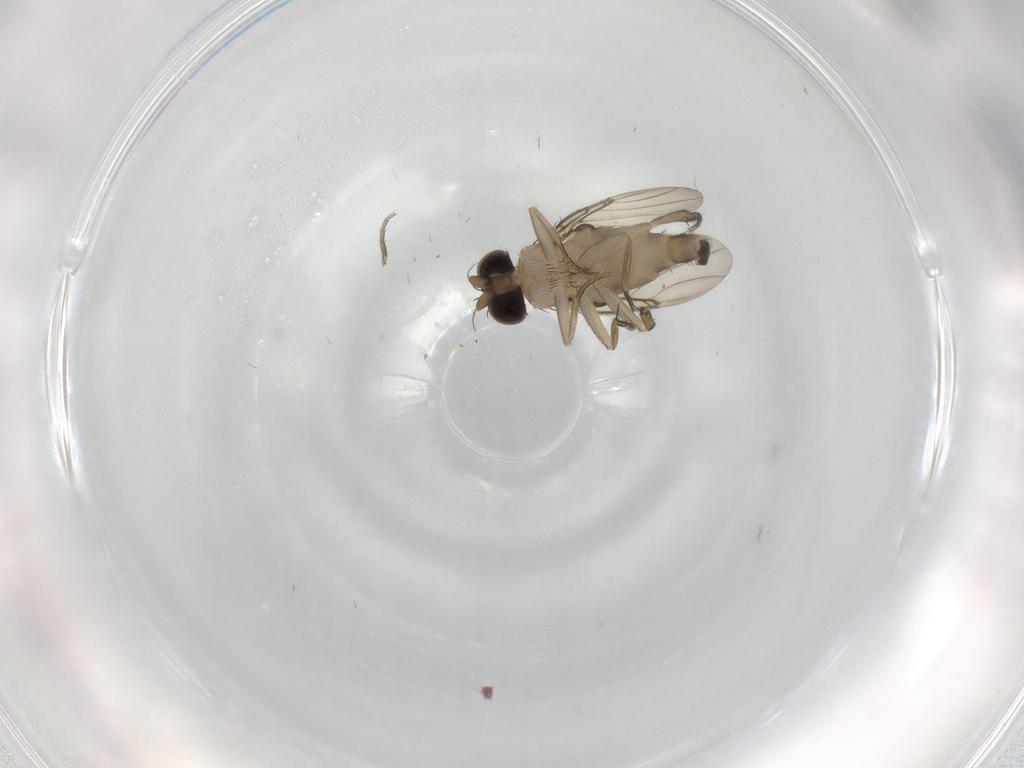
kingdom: Animalia
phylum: Arthropoda
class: Insecta
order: Diptera
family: Phoridae
